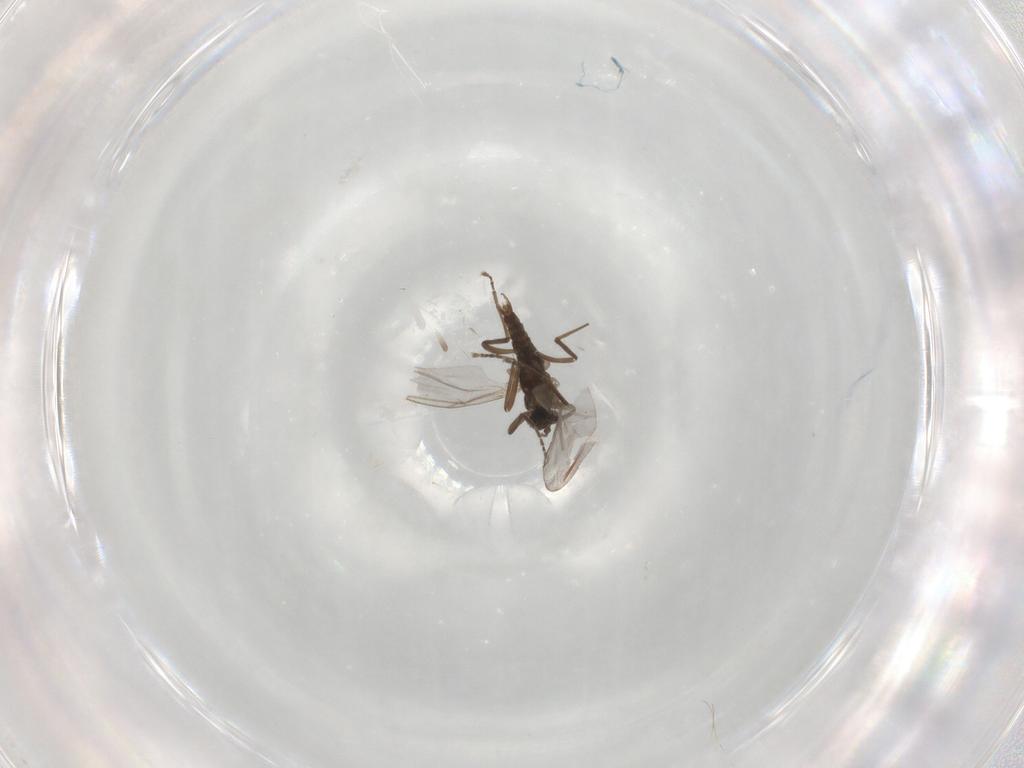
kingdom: Animalia
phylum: Arthropoda
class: Insecta
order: Diptera
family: Cecidomyiidae
